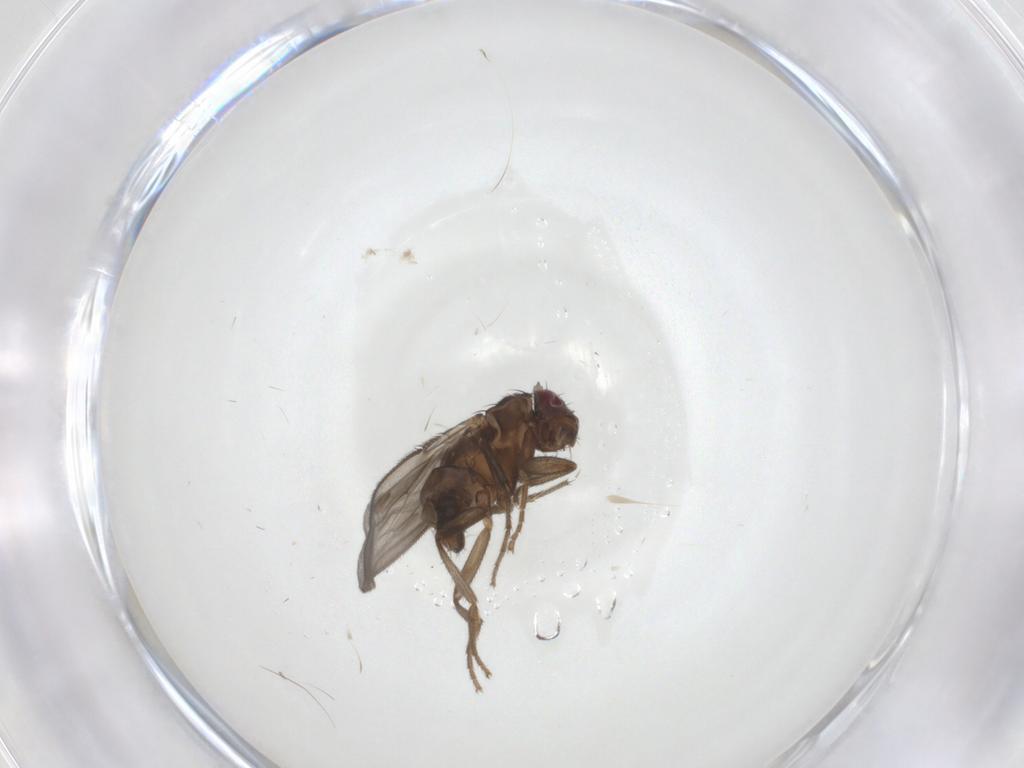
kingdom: Animalia
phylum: Arthropoda
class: Insecta
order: Diptera
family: Sphaeroceridae
